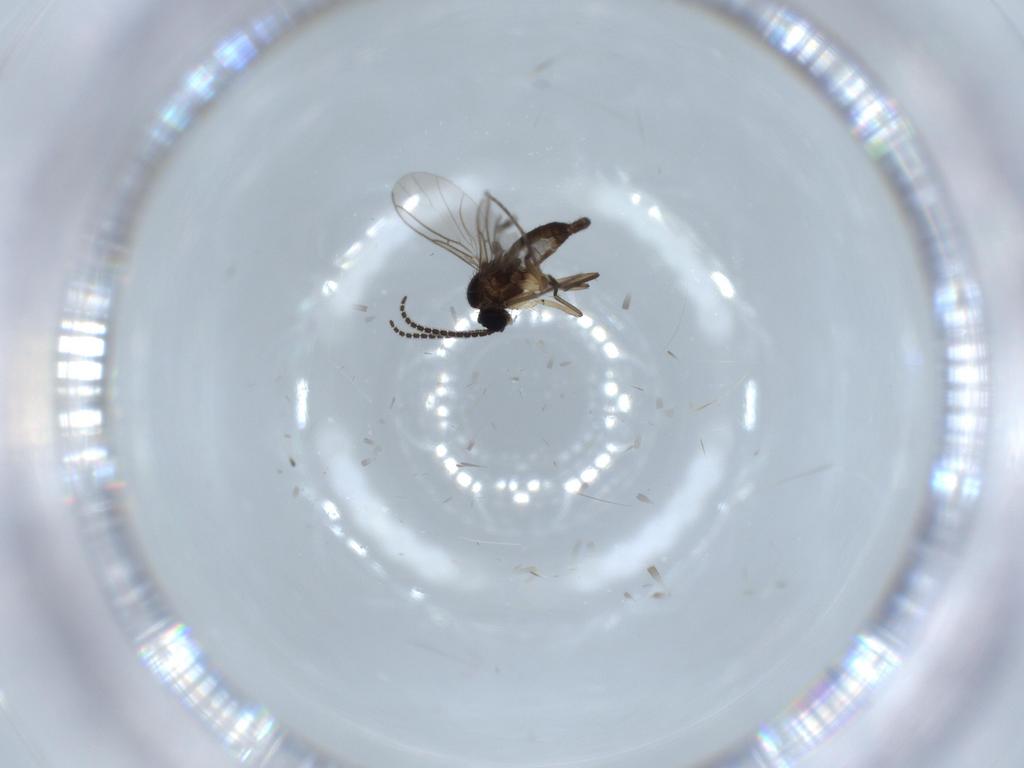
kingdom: Animalia
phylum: Arthropoda
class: Insecta
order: Diptera
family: Sciaridae
